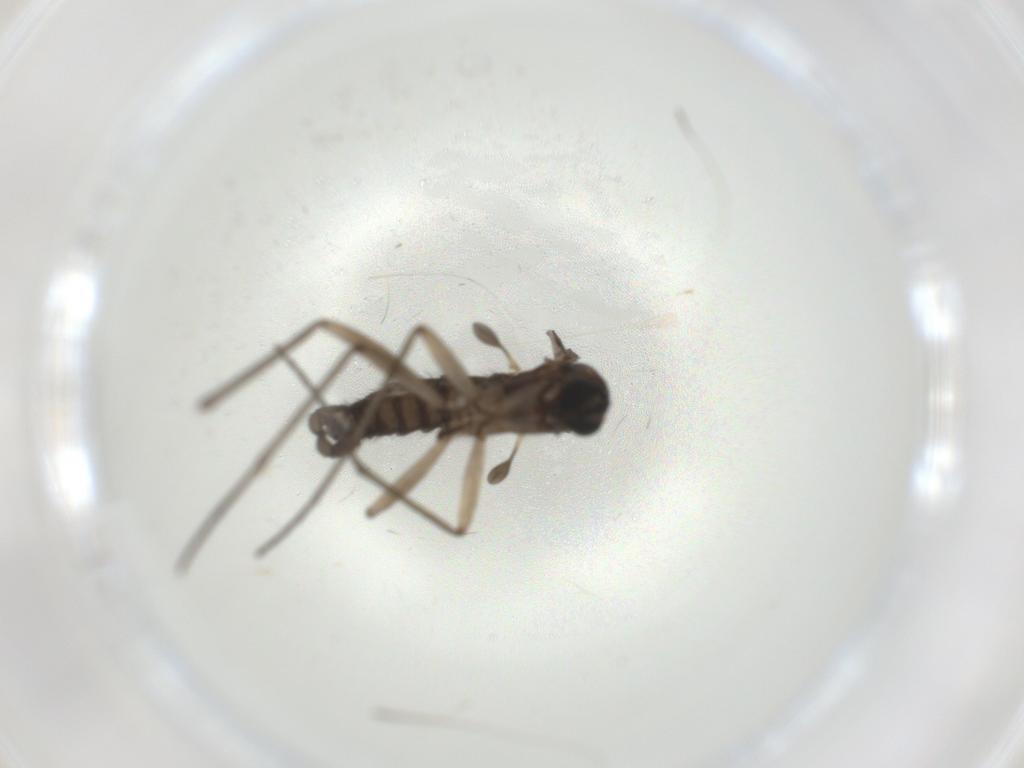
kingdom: Animalia
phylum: Arthropoda
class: Insecta
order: Diptera
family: Sciaridae
